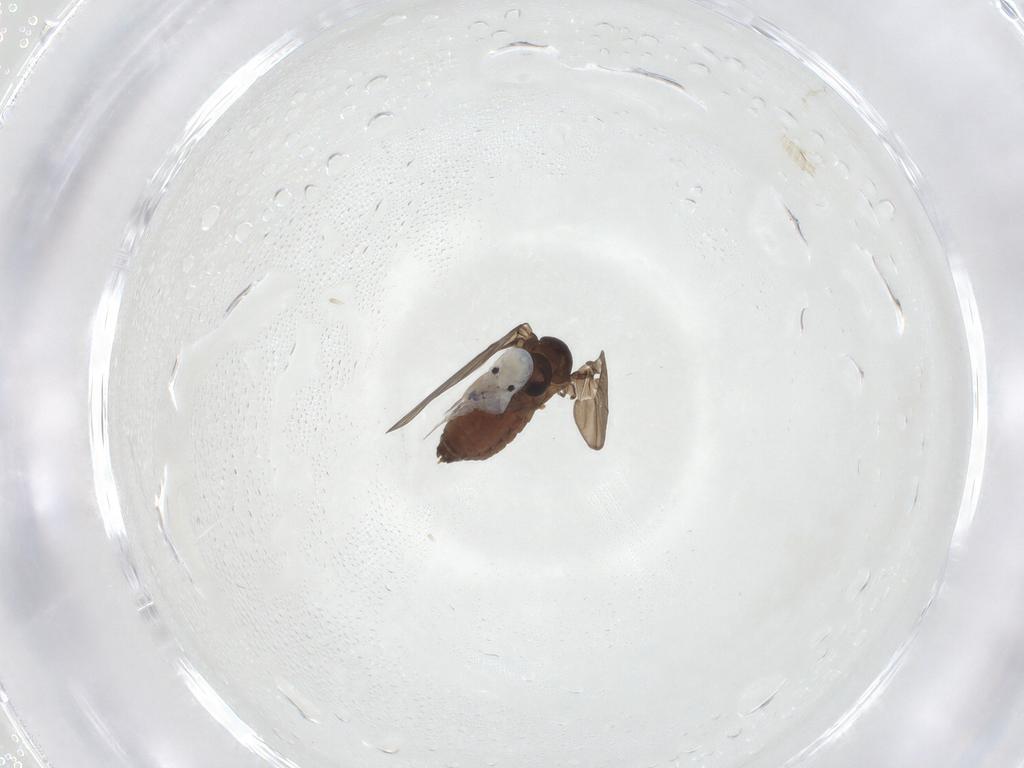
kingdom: Animalia
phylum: Arthropoda
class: Insecta
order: Diptera
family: Psychodidae
